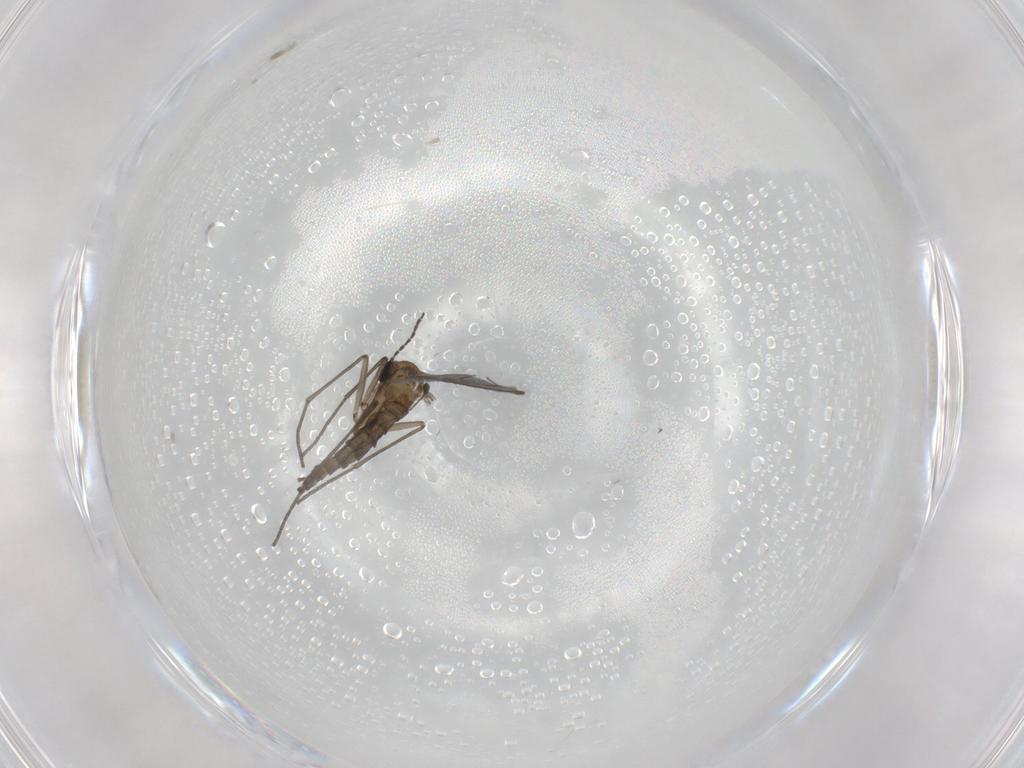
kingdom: Animalia
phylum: Arthropoda
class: Insecta
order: Diptera
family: Sciaridae
